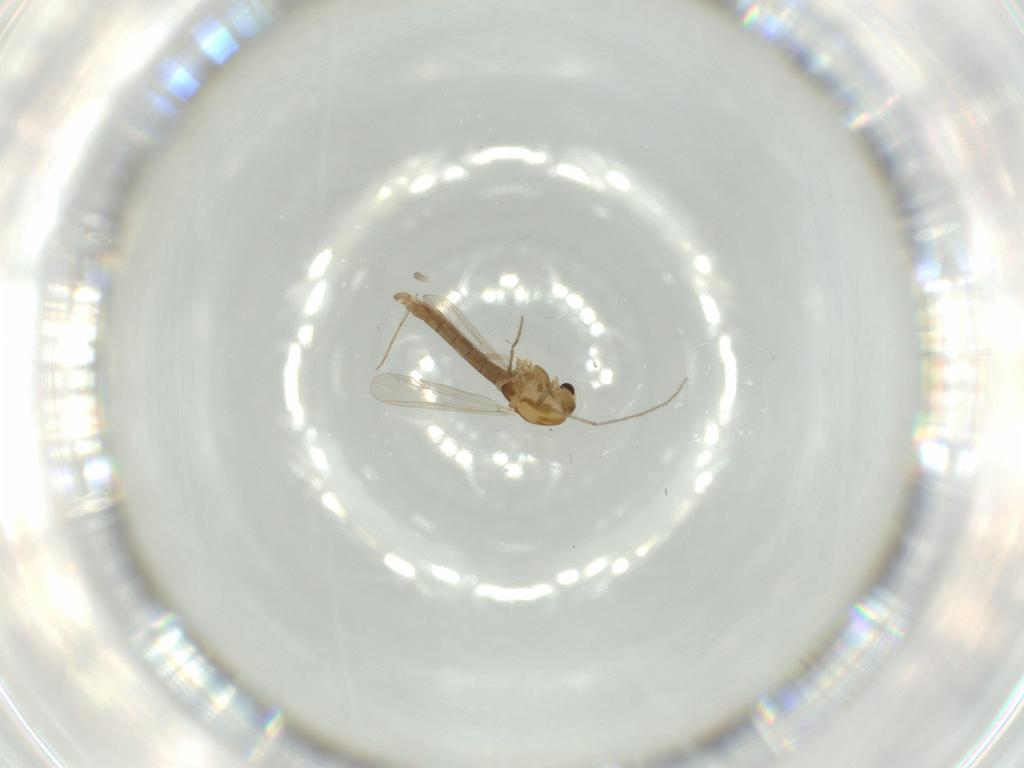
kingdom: Animalia
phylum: Arthropoda
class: Insecta
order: Diptera
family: Chironomidae
